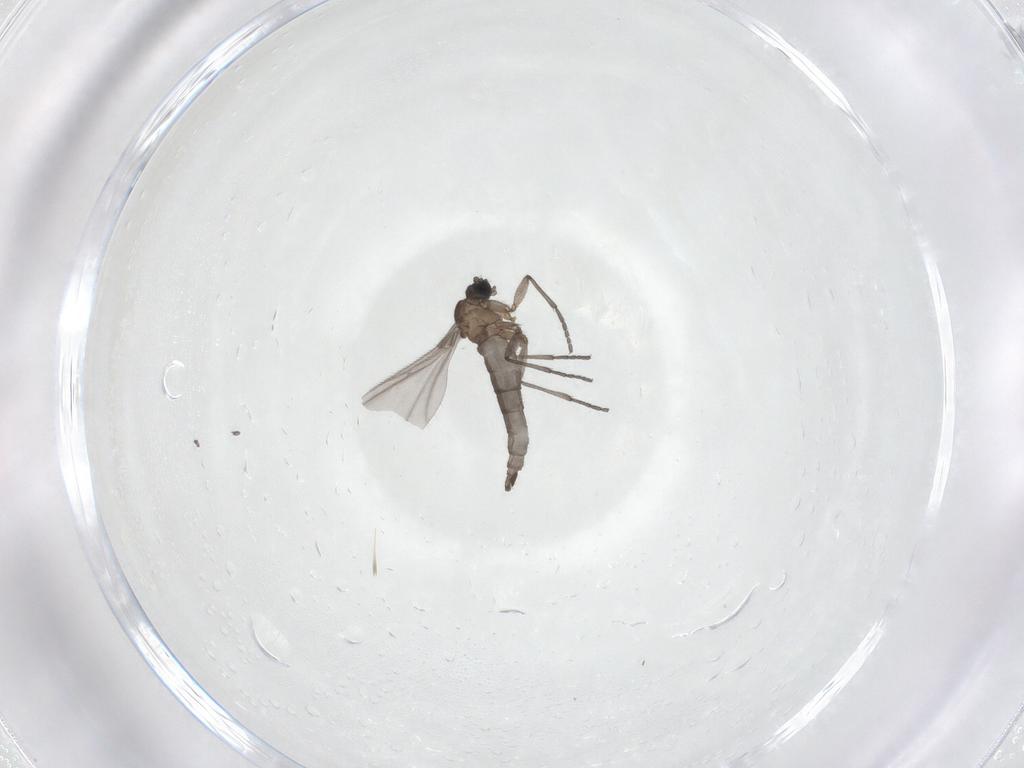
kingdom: Animalia
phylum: Arthropoda
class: Insecta
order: Diptera
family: Sciaridae
